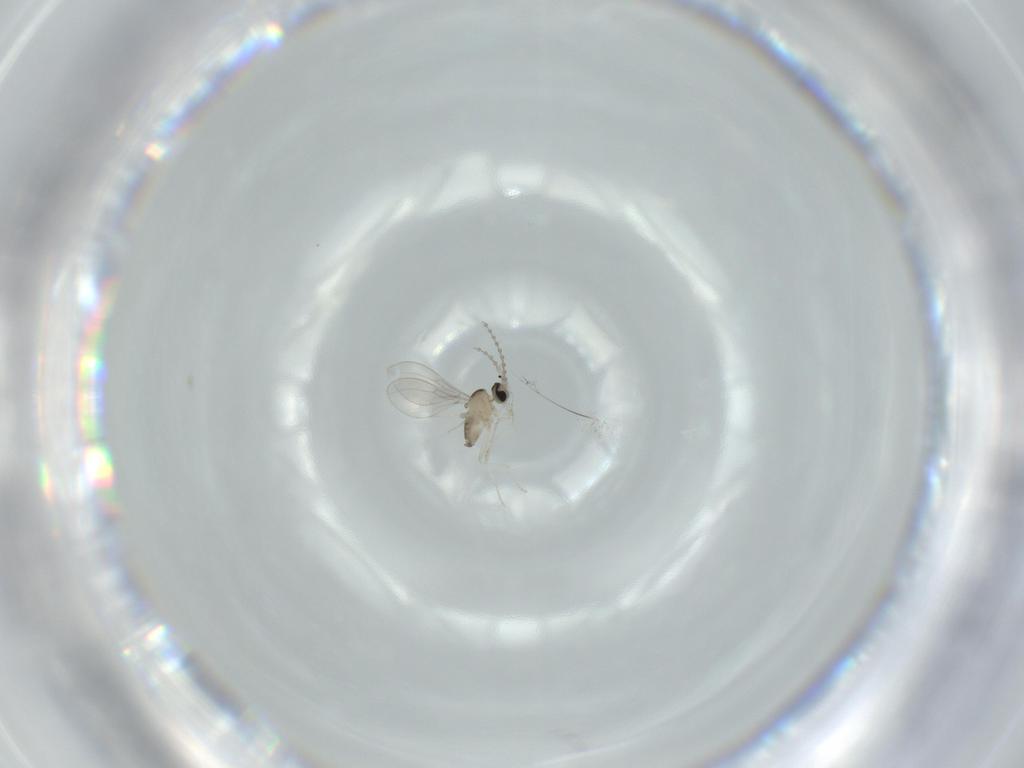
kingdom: Animalia
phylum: Arthropoda
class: Insecta
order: Diptera
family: Cecidomyiidae
